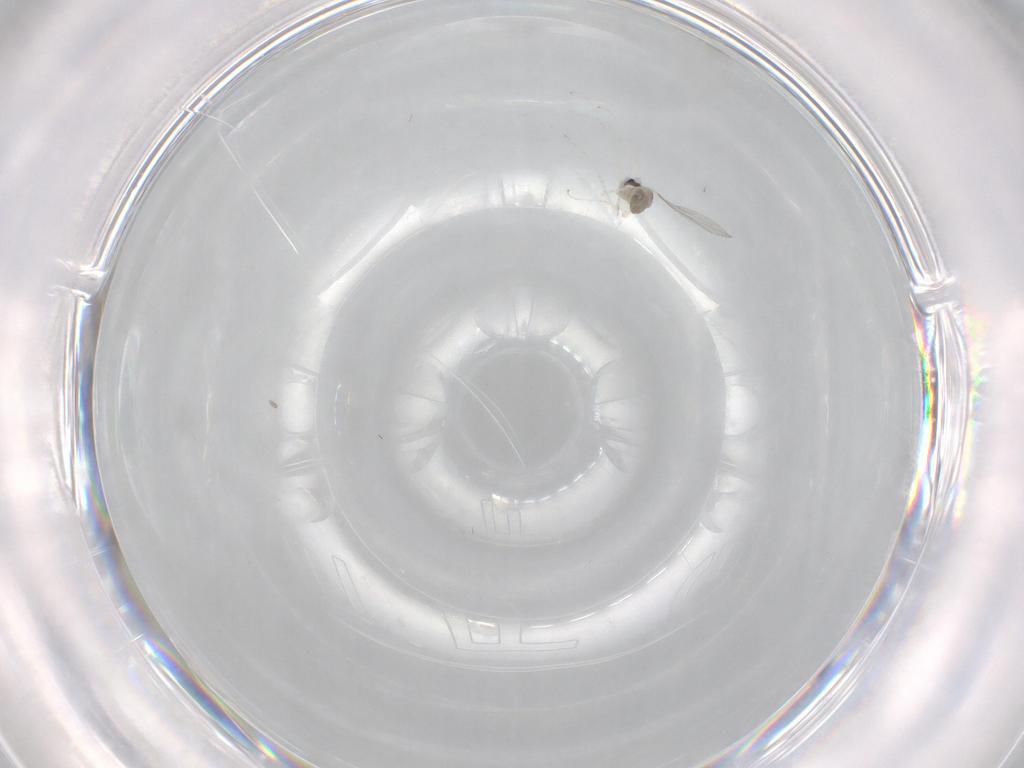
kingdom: Animalia
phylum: Arthropoda
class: Insecta
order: Diptera
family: Cecidomyiidae
